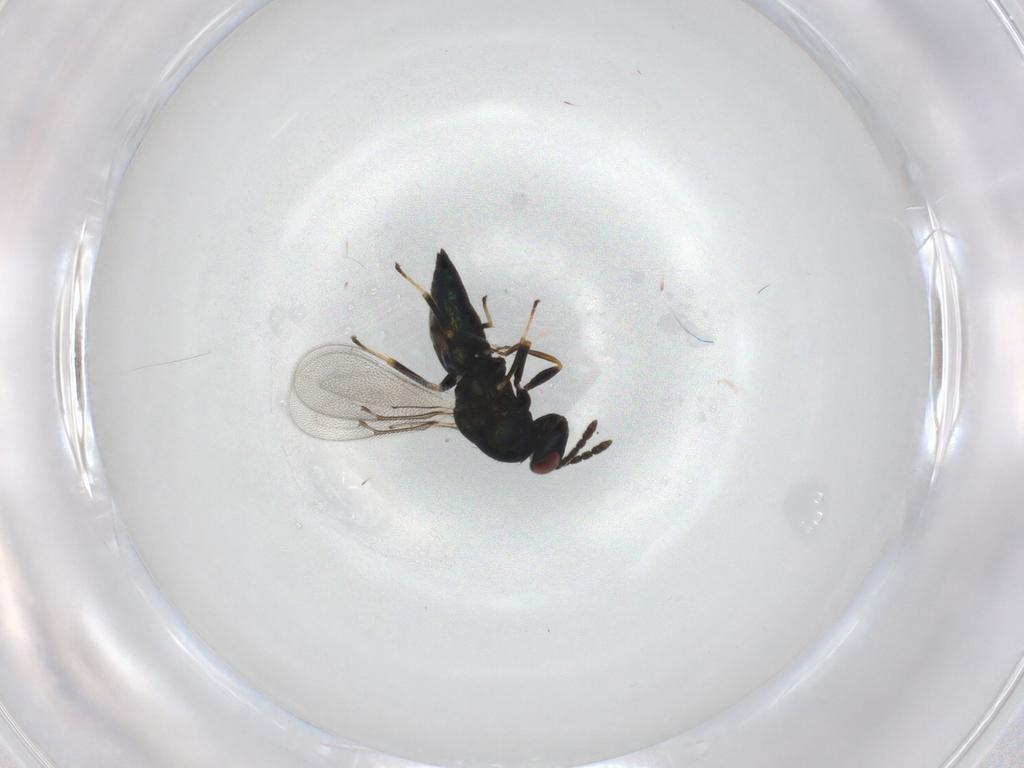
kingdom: Animalia
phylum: Arthropoda
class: Insecta
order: Hymenoptera
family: Eulophidae
